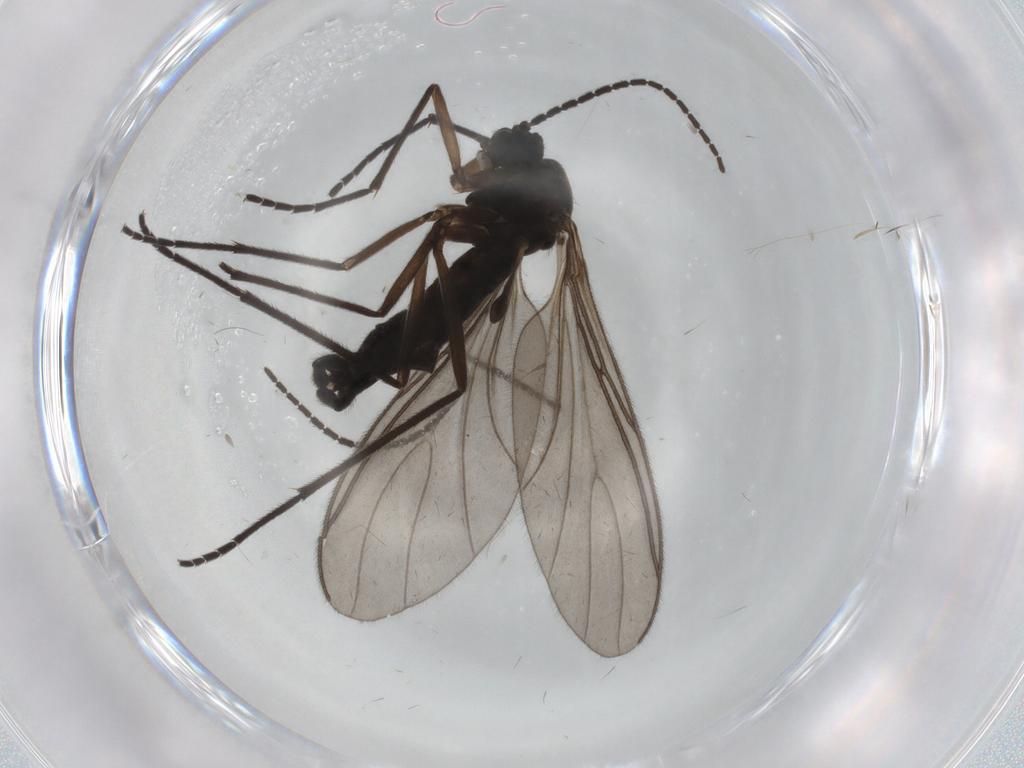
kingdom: Animalia
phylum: Arthropoda
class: Insecta
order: Diptera
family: Sciaridae
